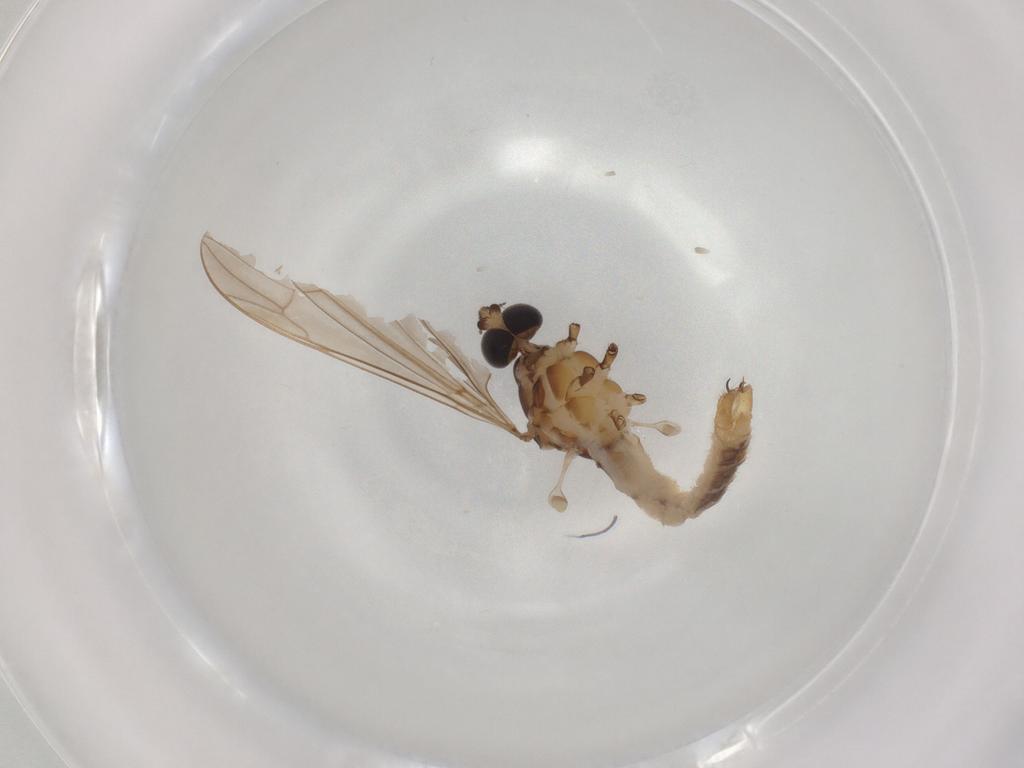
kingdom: Animalia
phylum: Arthropoda
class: Insecta
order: Diptera
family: Limoniidae
